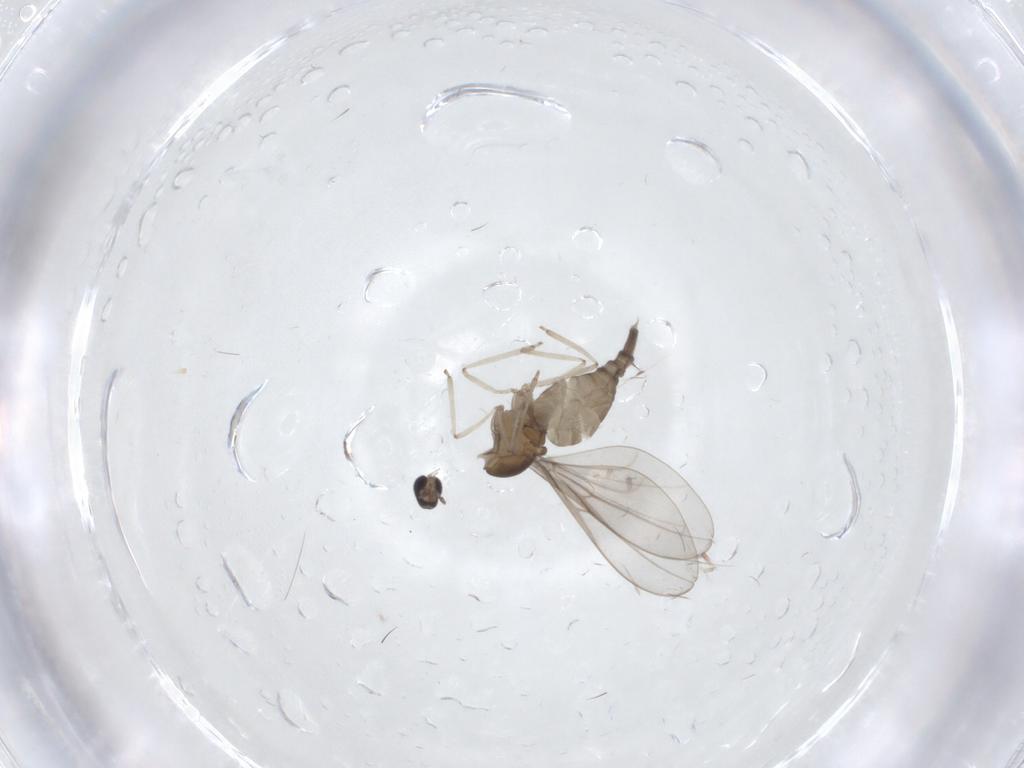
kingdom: Animalia
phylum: Arthropoda
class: Insecta
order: Diptera
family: Cecidomyiidae
